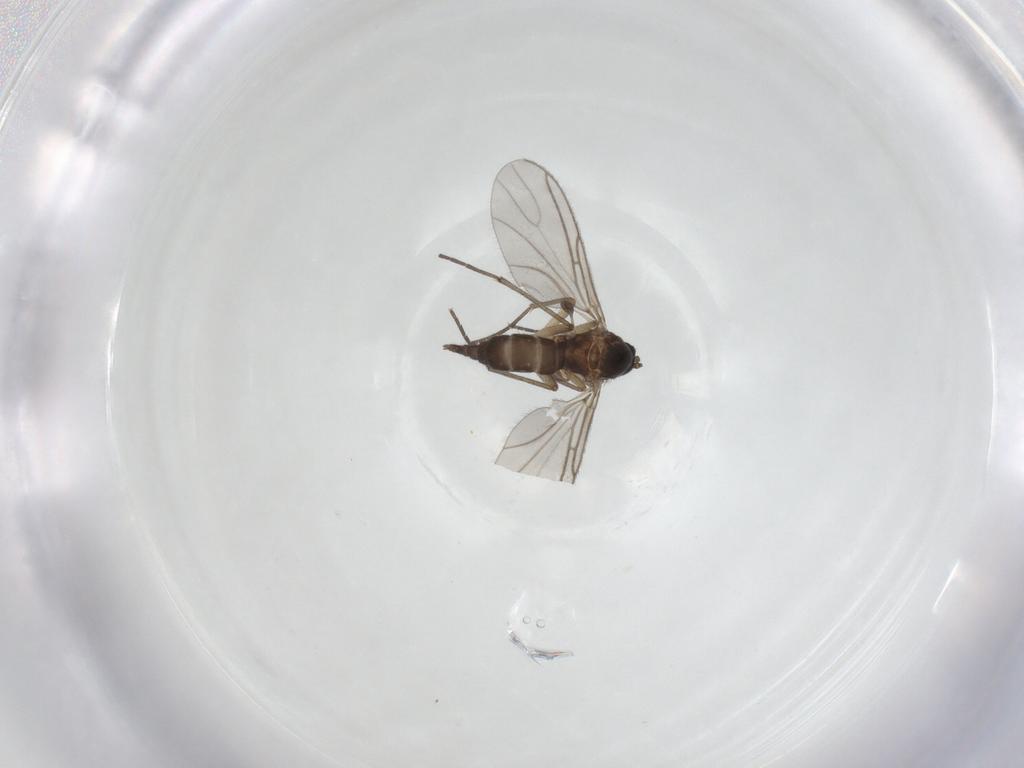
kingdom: Animalia
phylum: Arthropoda
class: Insecta
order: Diptera
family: Sciaridae
